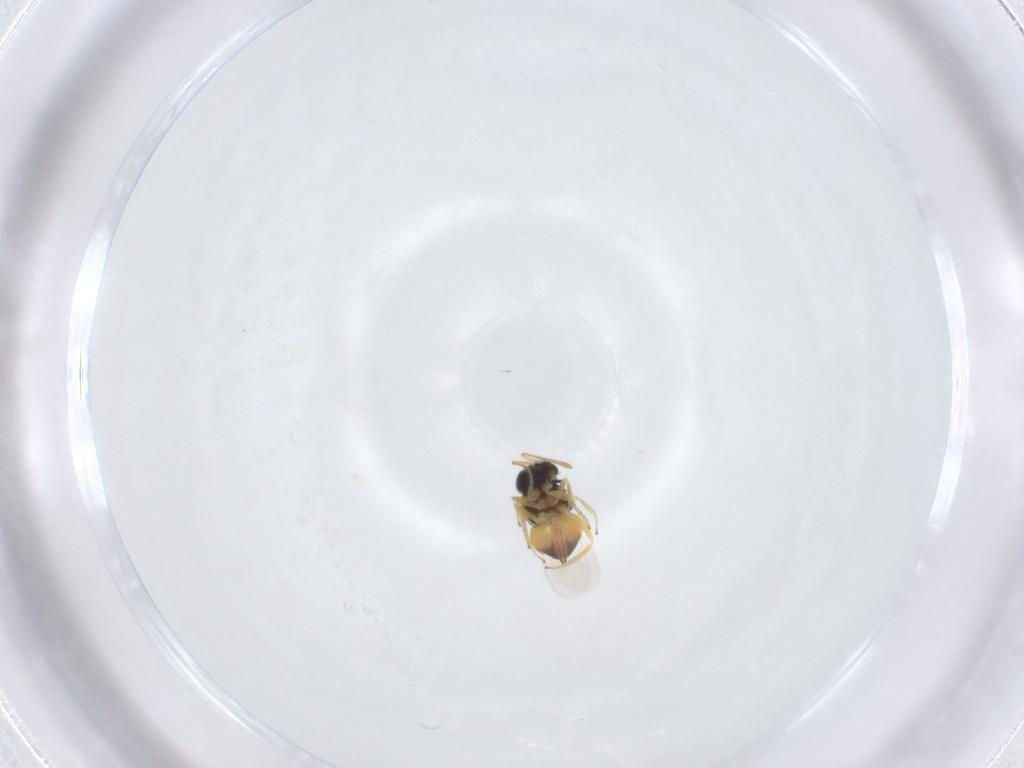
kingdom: Animalia
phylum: Arthropoda
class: Insecta
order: Hymenoptera
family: Encyrtidae
